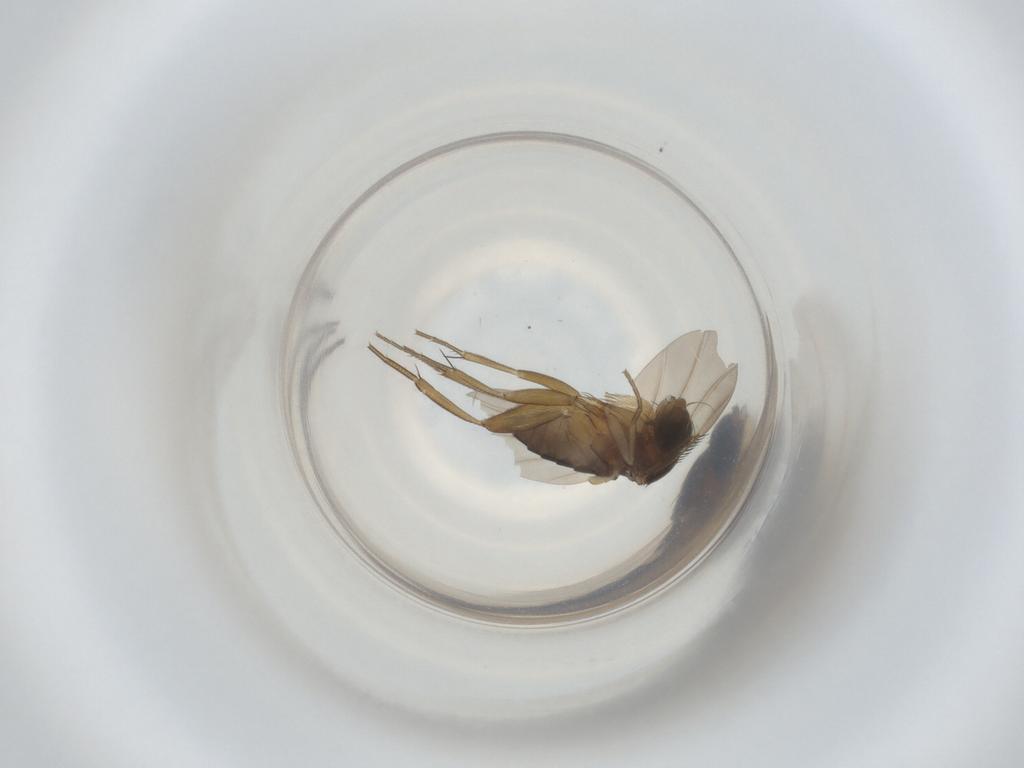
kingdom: Animalia
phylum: Arthropoda
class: Insecta
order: Diptera
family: Phoridae
